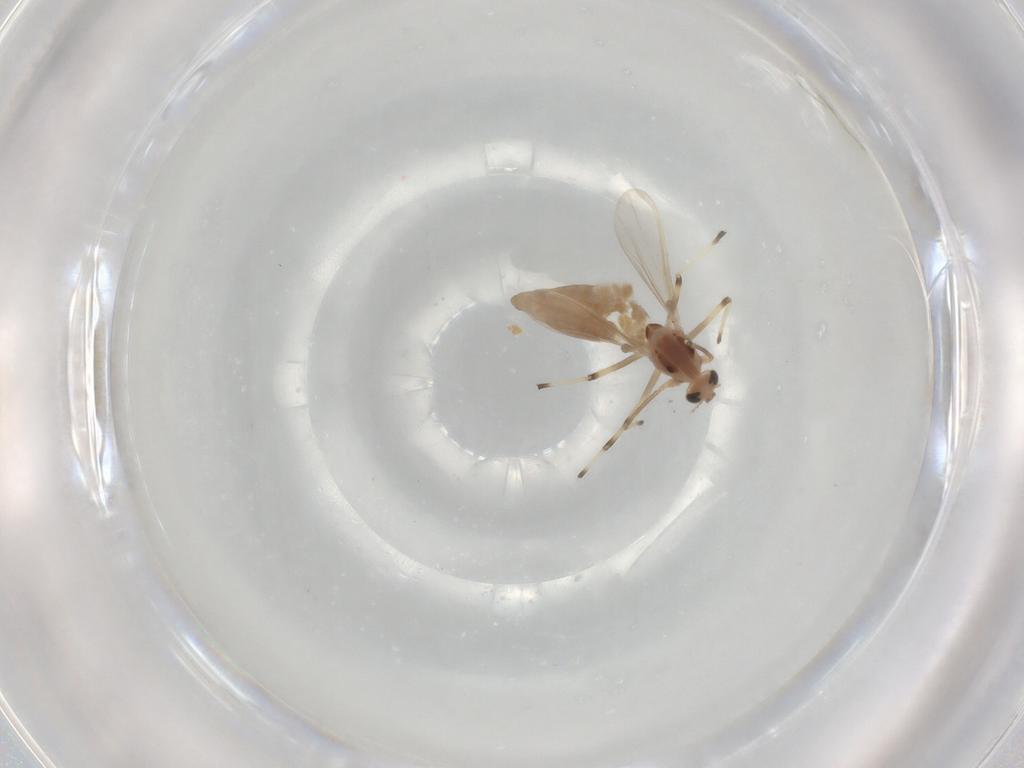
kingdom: Animalia
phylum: Arthropoda
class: Insecta
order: Diptera
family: Chironomidae
